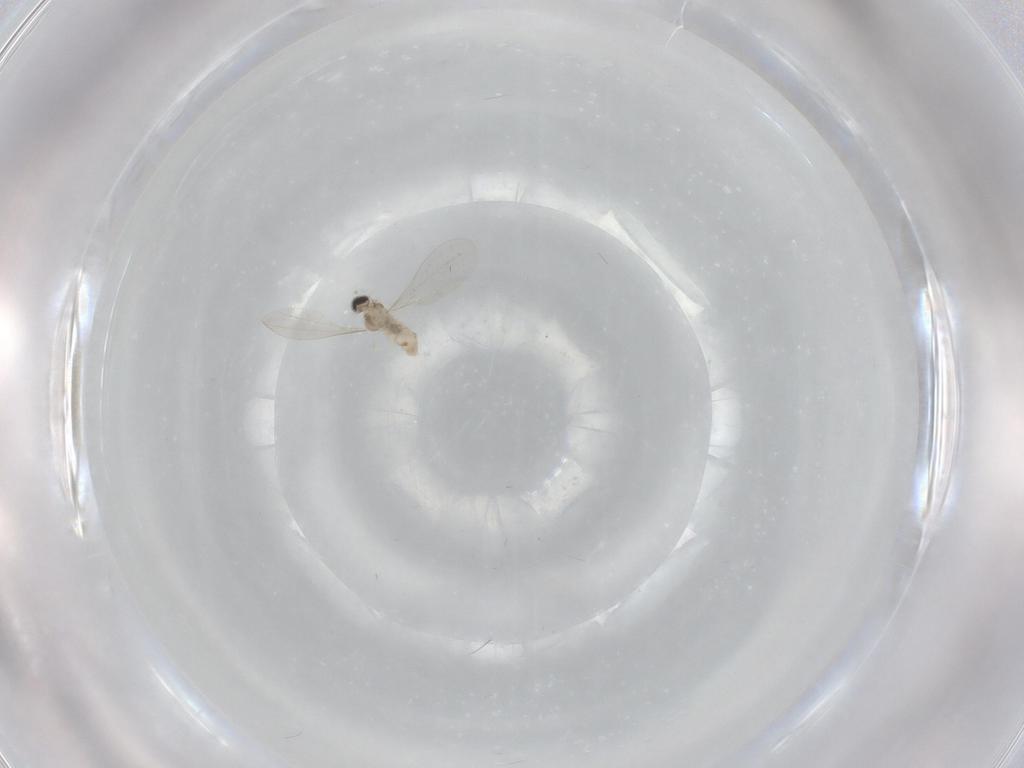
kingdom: Animalia
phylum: Arthropoda
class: Insecta
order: Diptera
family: Cecidomyiidae
